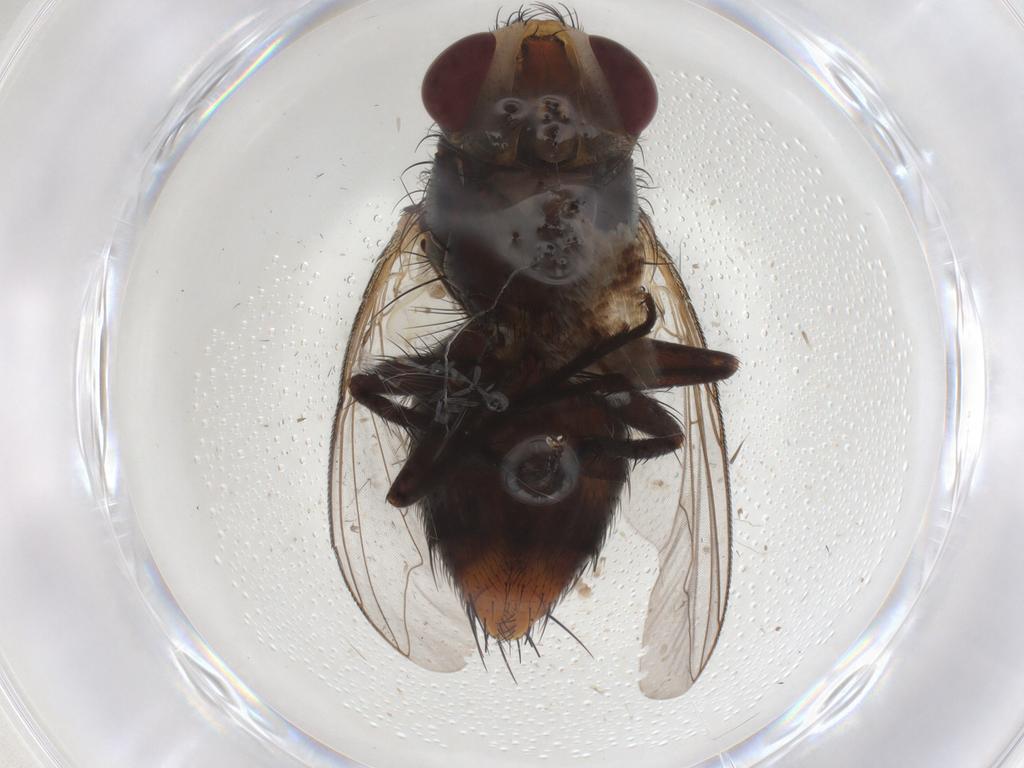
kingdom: Animalia
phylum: Arthropoda
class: Insecta
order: Diptera
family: Sarcophagidae
